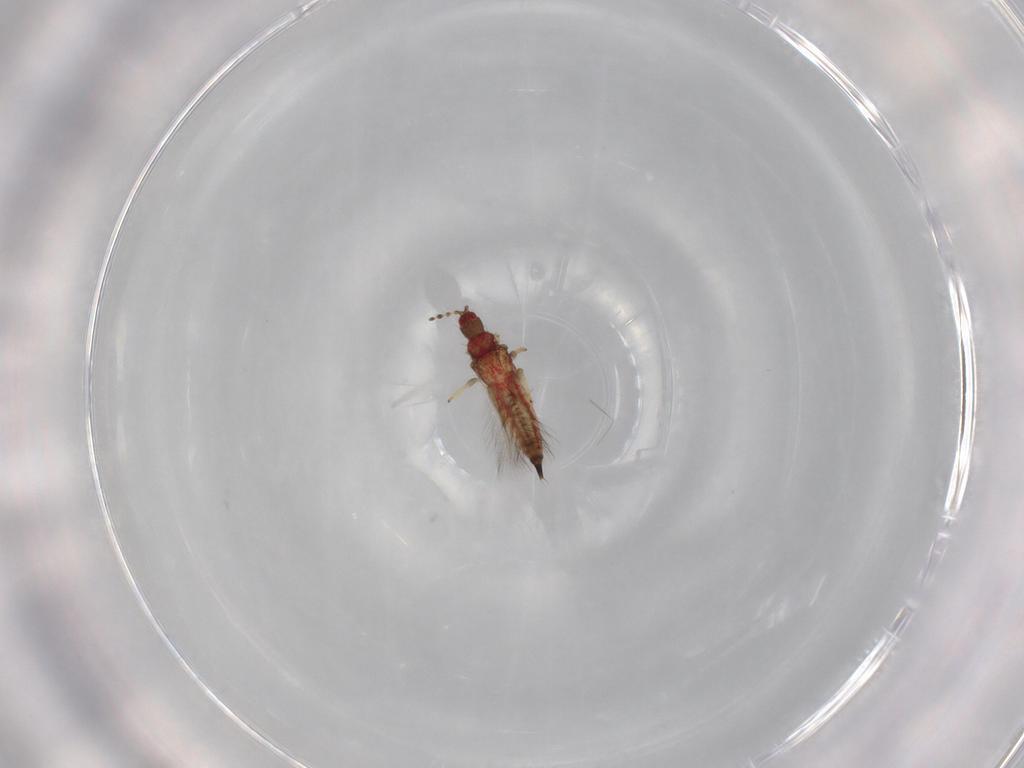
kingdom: Animalia
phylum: Arthropoda
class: Insecta
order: Thysanoptera
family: Phlaeothripidae
